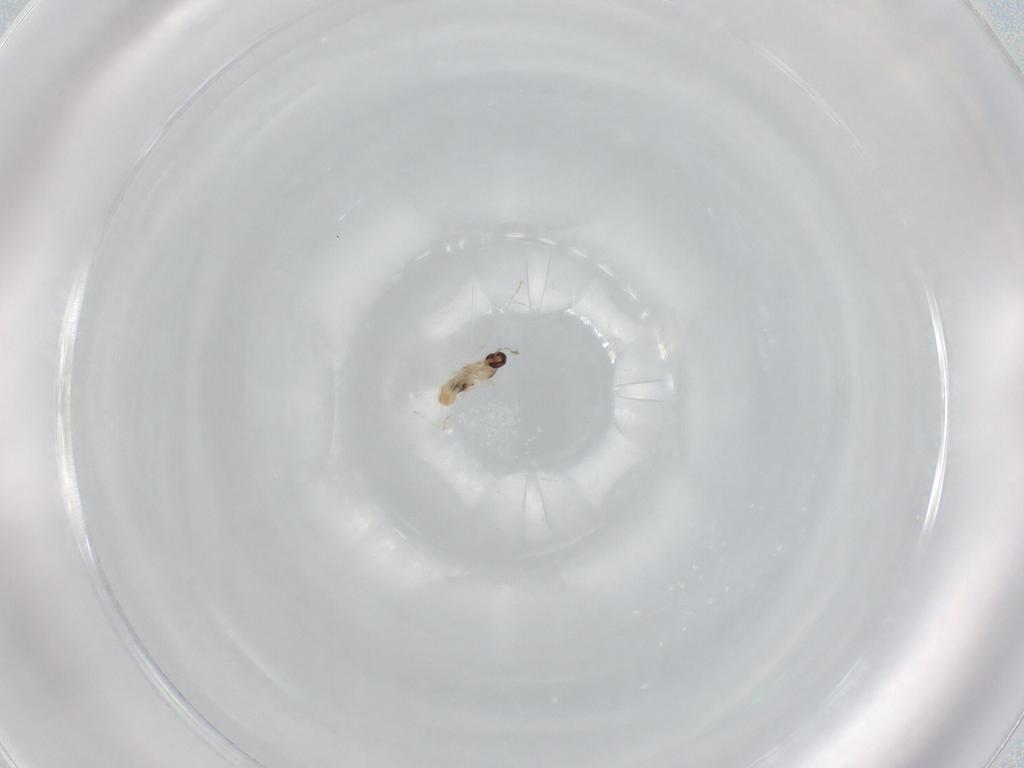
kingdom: Animalia
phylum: Arthropoda
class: Insecta
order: Diptera
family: Cecidomyiidae
